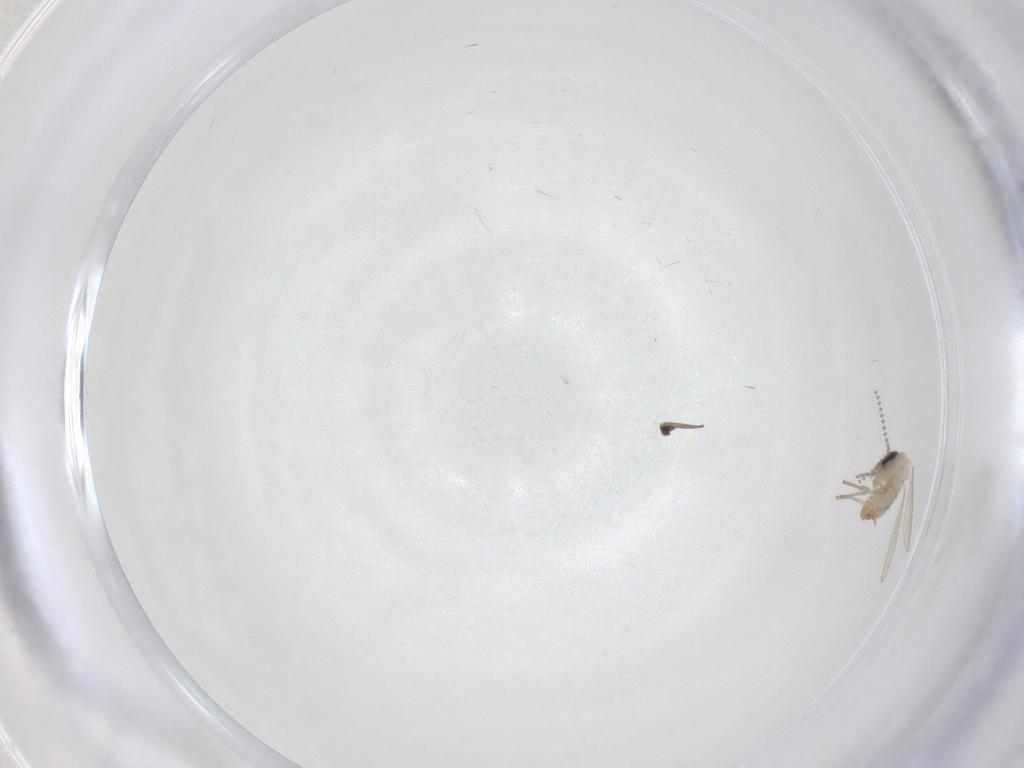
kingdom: Animalia
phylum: Arthropoda
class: Insecta
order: Diptera
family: Psychodidae
